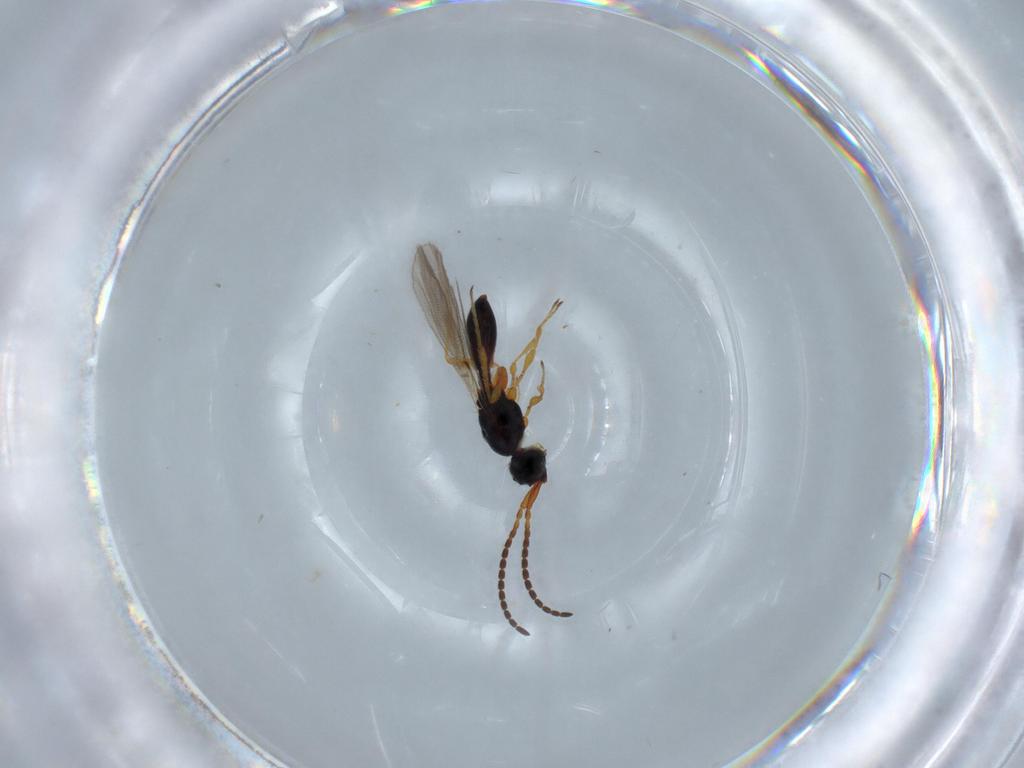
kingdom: Animalia
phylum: Arthropoda
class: Insecta
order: Hymenoptera
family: Diapriidae
